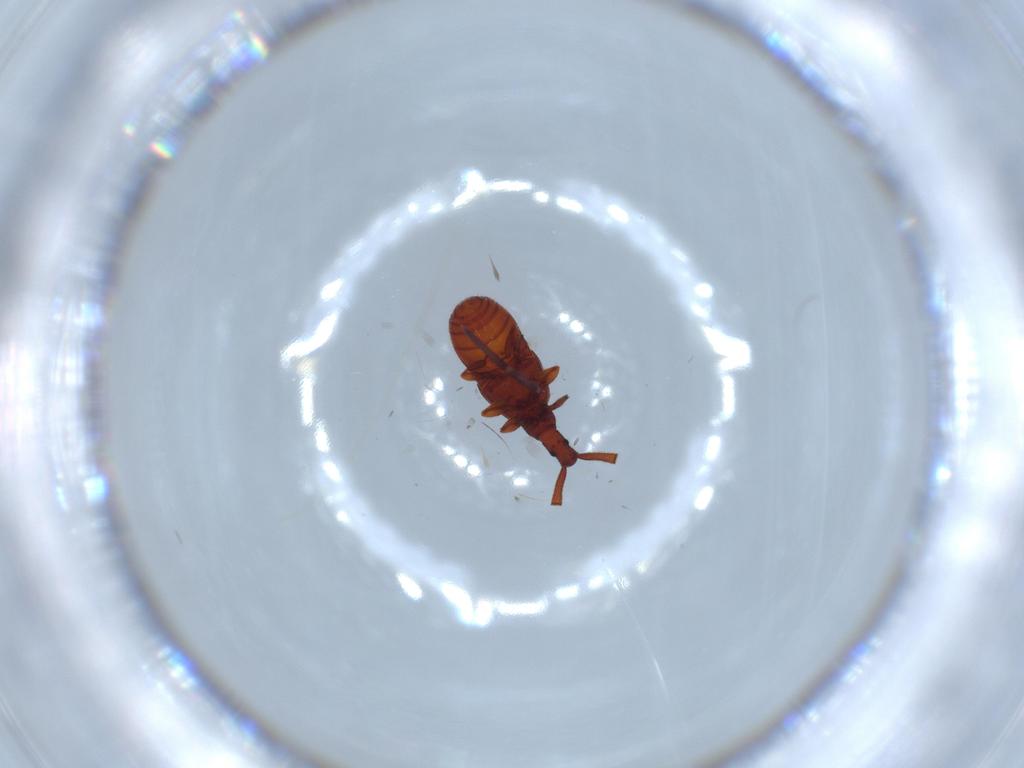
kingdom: Animalia
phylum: Arthropoda
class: Insecta
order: Coleoptera
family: Staphylinidae
